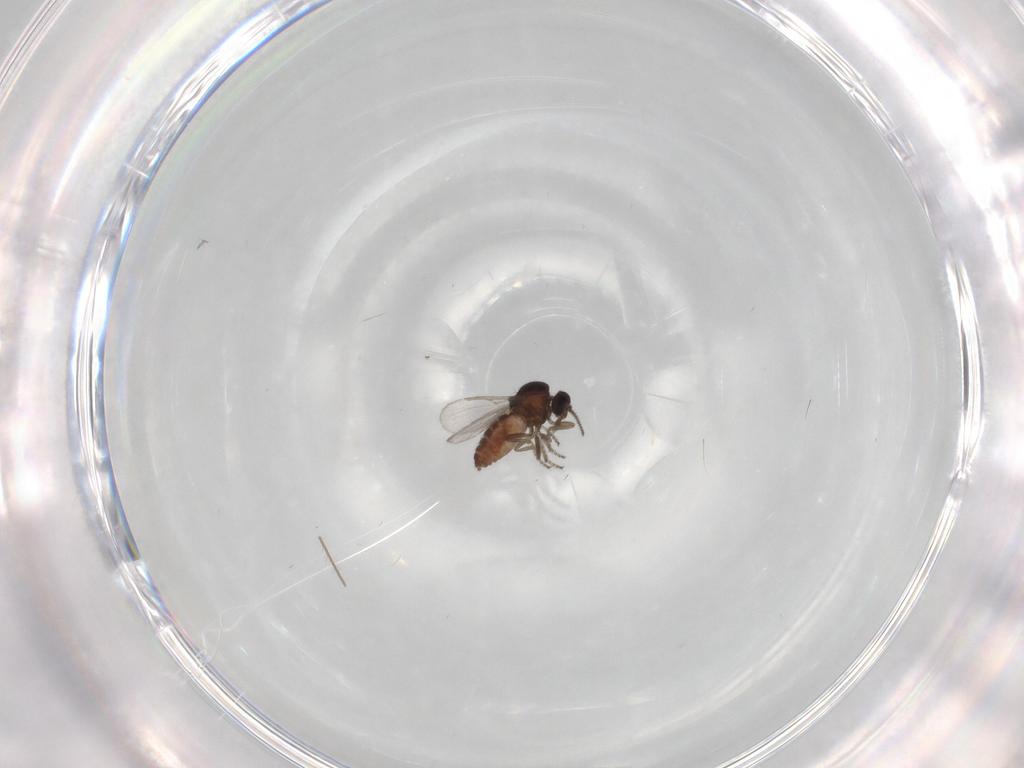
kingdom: Animalia
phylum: Arthropoda
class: Insecta
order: Diptera
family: Ceratopogonidae
